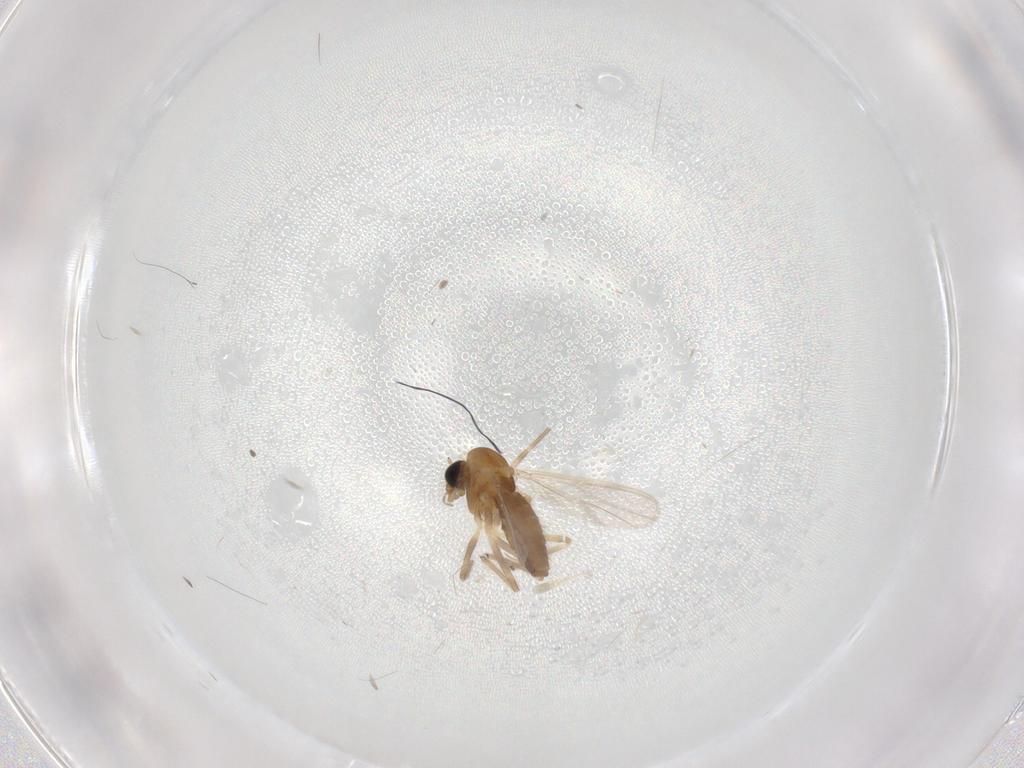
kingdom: Animalia
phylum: Arthropoda
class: Insecta
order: Diptera
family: Chironomidae
